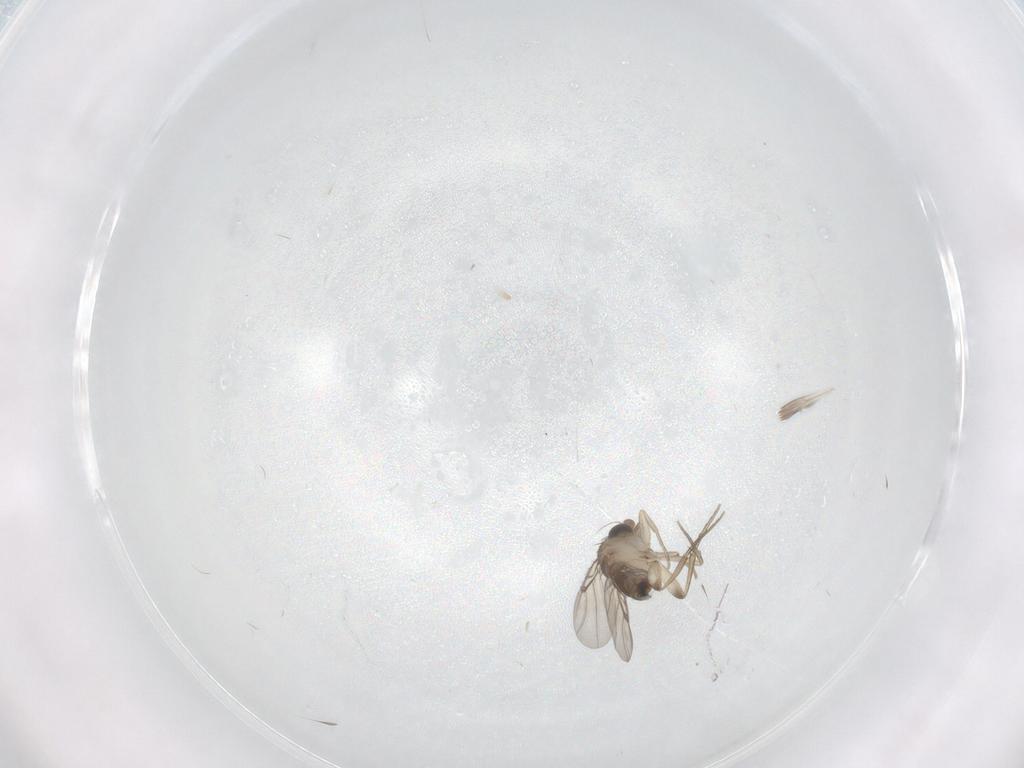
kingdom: Animalia
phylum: Arthropoda
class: Insecta
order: Diptera
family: Phoridae
